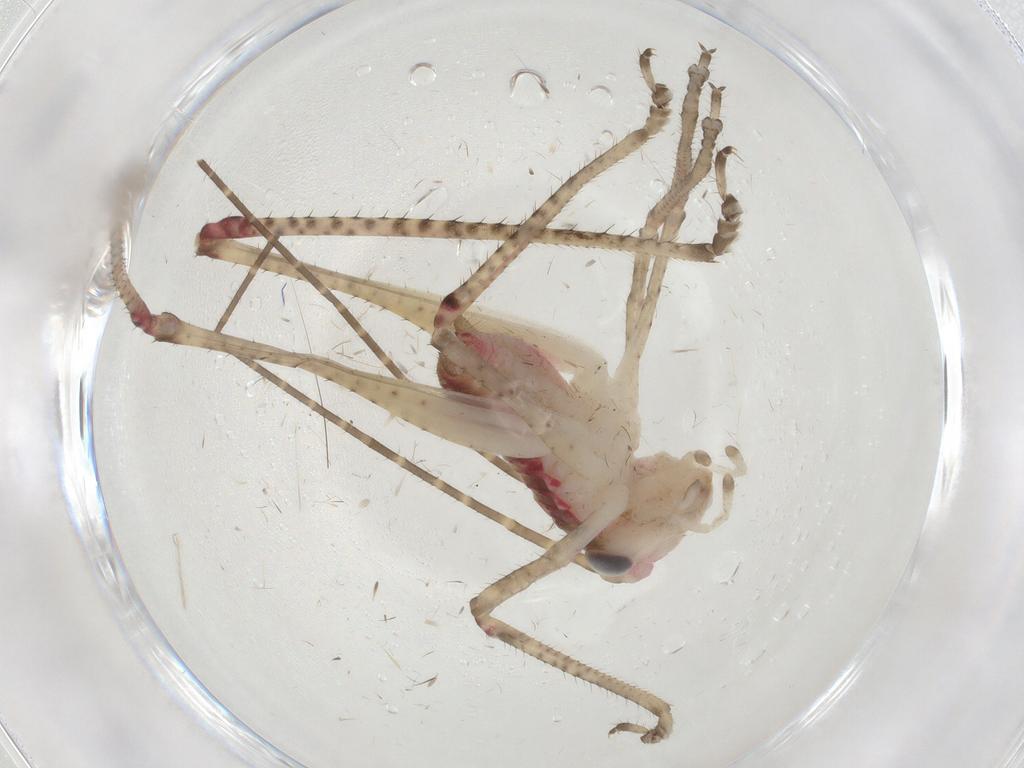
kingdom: Animalia
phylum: Arthropoda
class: Insecta
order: Orthoptera
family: Tettigoniidae
